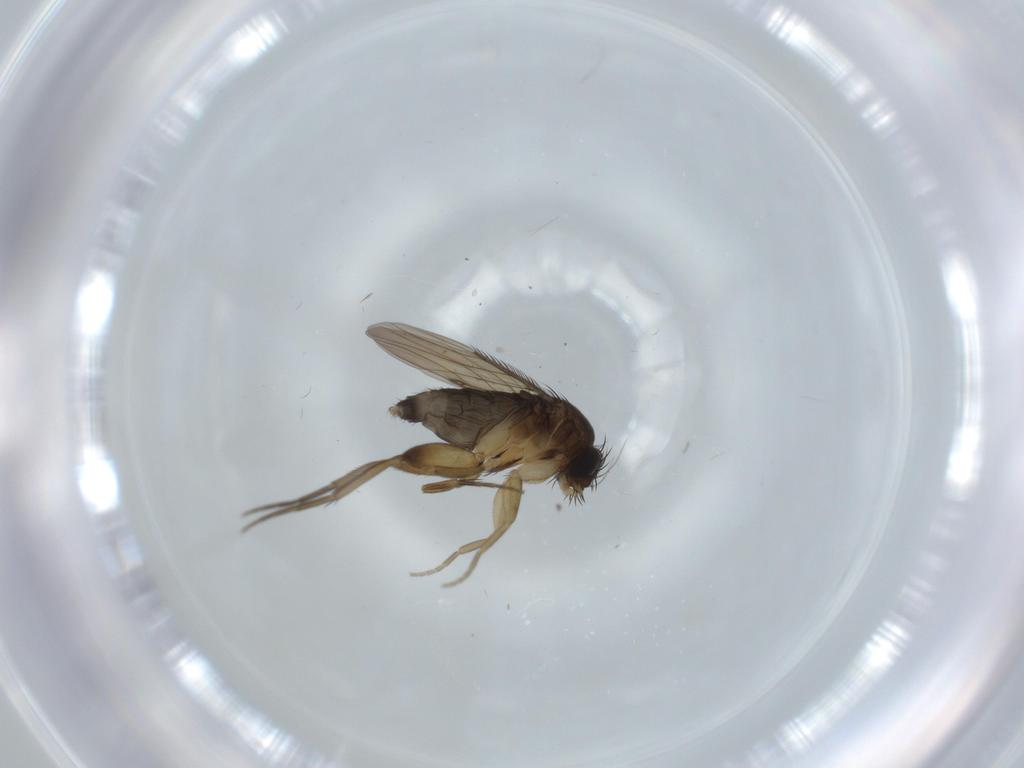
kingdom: Animalia
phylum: Arthropoda
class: Insecta
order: Diptera
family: Phoridae
